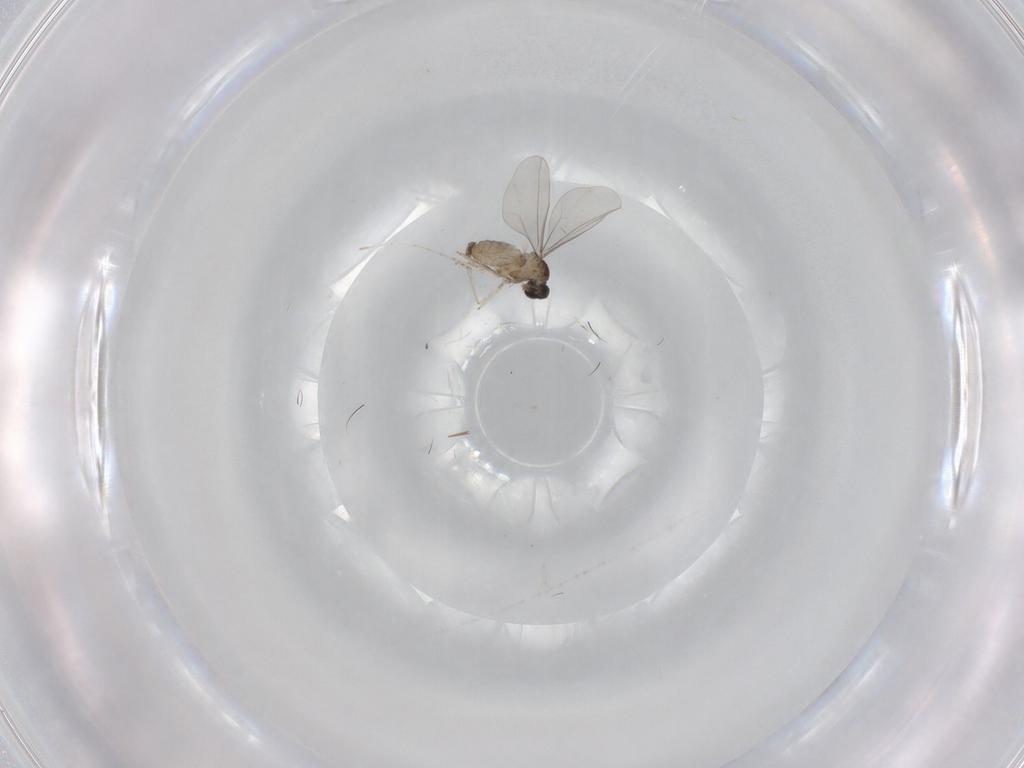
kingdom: Animalia
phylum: Arthropoda
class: Insecta
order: Diptera
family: Cecidomyiidae
